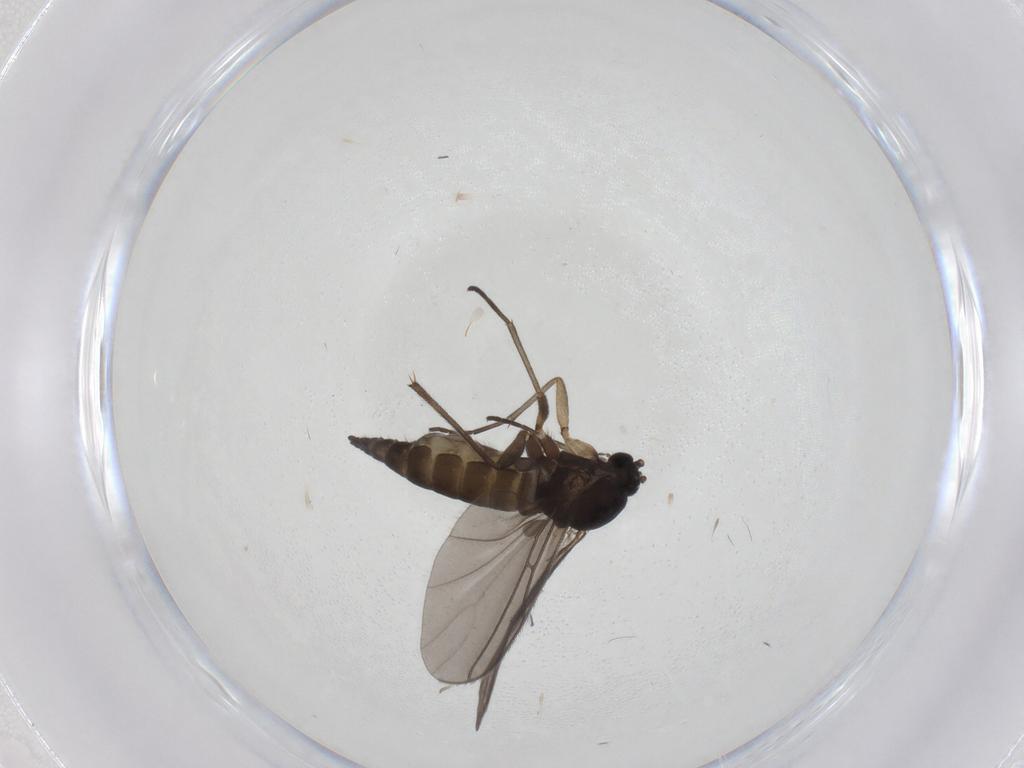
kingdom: Animalia
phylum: Arthropoda
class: Insecta
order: Diptera
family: Sciaridae
